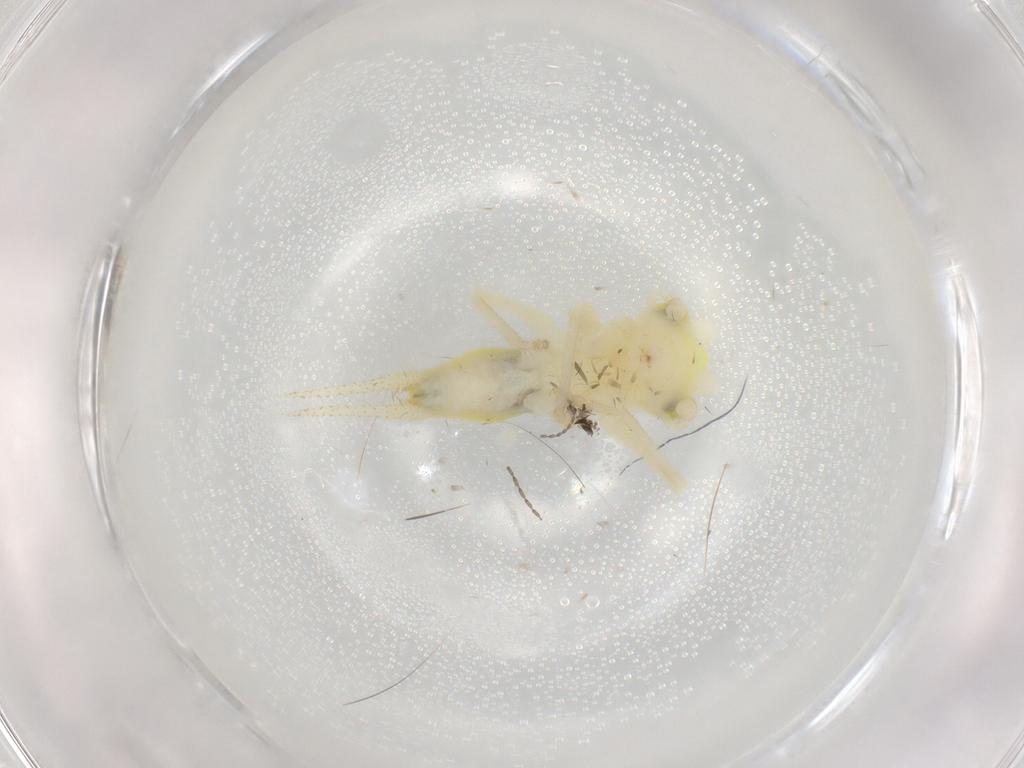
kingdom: Animalia
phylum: Arthropoda
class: Insecta
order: Orthoptera
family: Trigonidiidae
